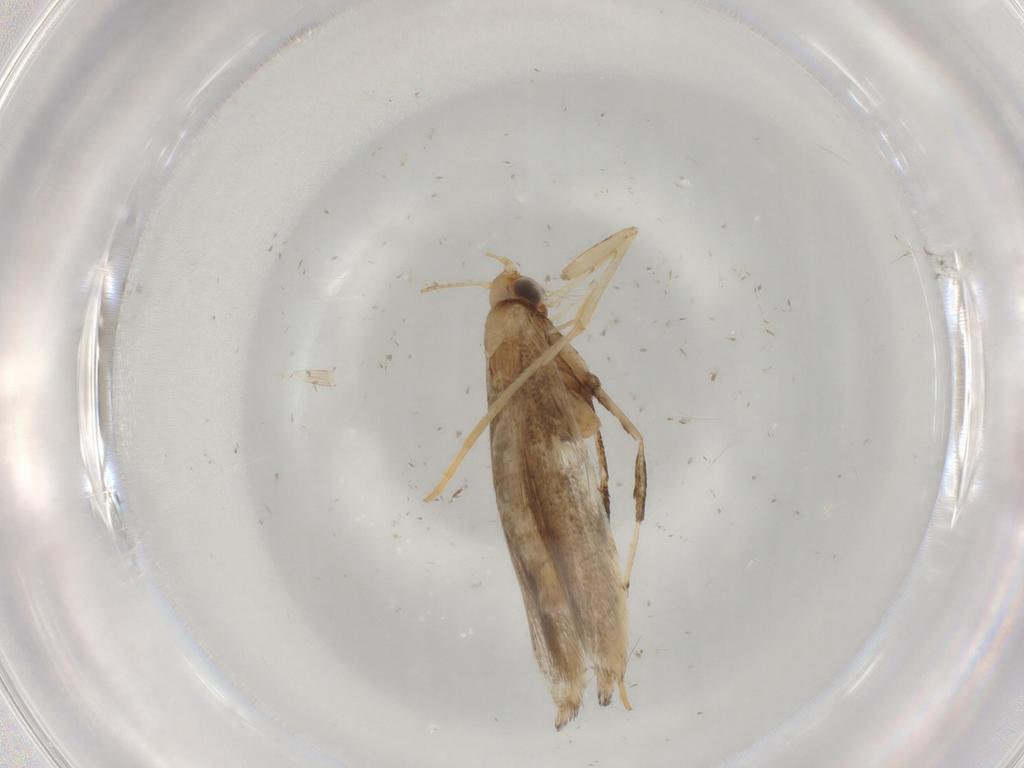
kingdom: Animalia
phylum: Arthropoda
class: Insecta
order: Lepidoptera
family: Gracillariidae
